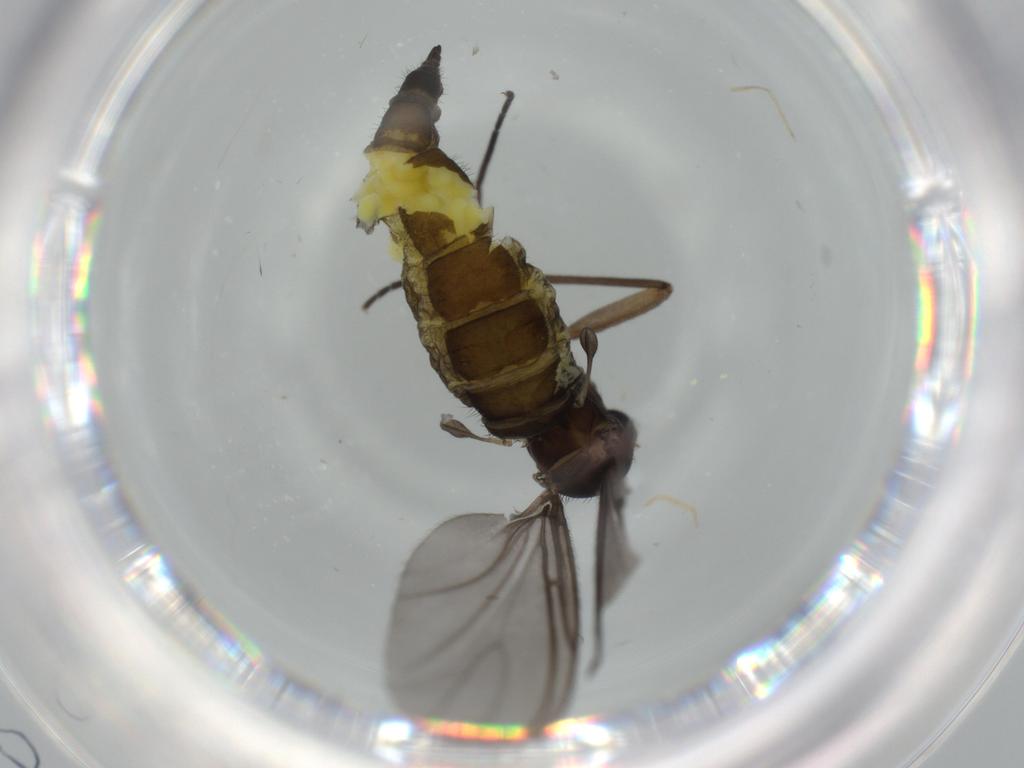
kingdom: Animalia
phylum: Arthropoda
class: Insecta
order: Diptera
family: Sciaridae
